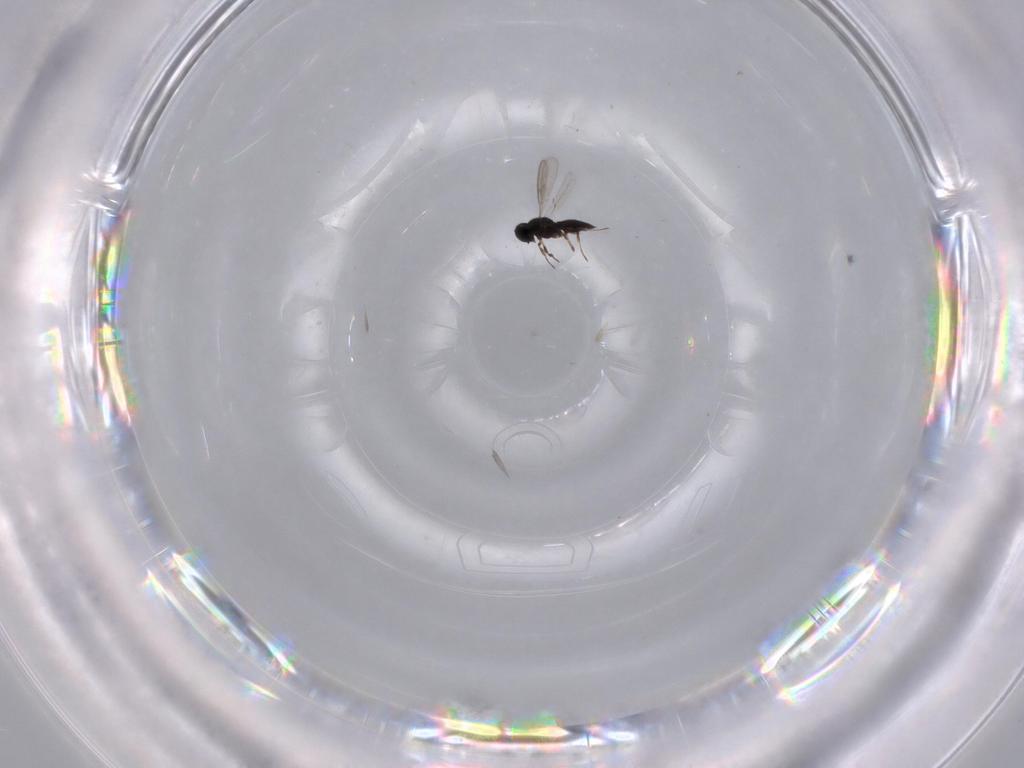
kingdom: Animalia
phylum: Arthropoda
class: Insecta
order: Hymenoptera
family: Scelionidae
